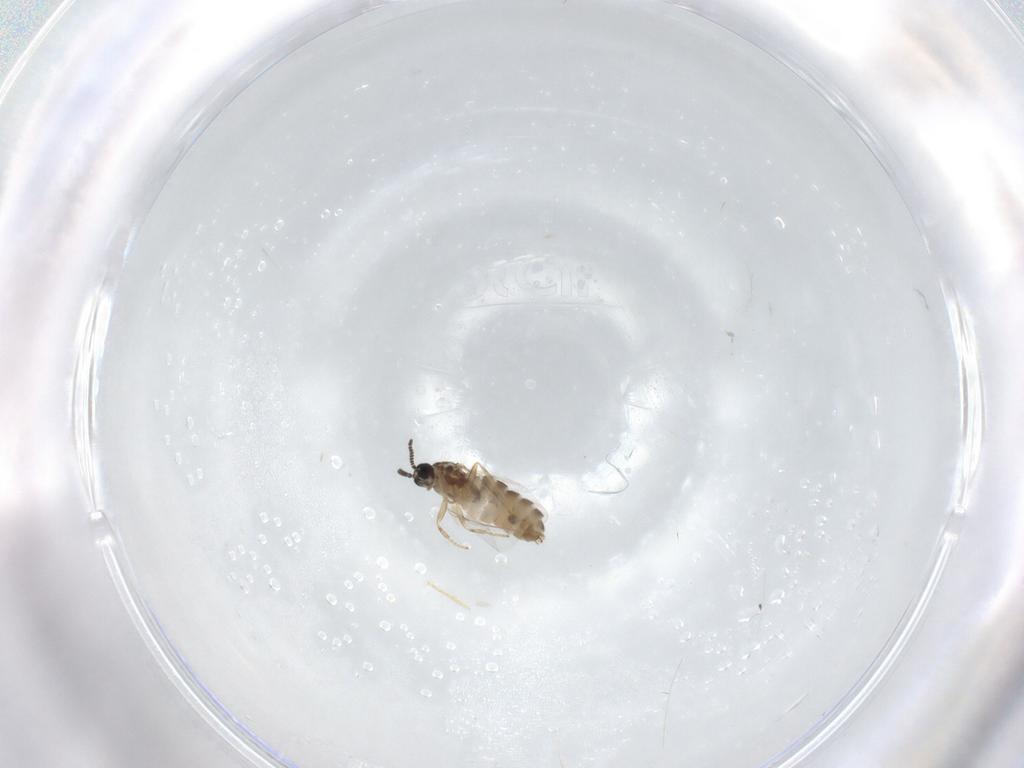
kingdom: Animalia
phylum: Arthropoda
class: Insecta
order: Diptera
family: Scatopsidae
